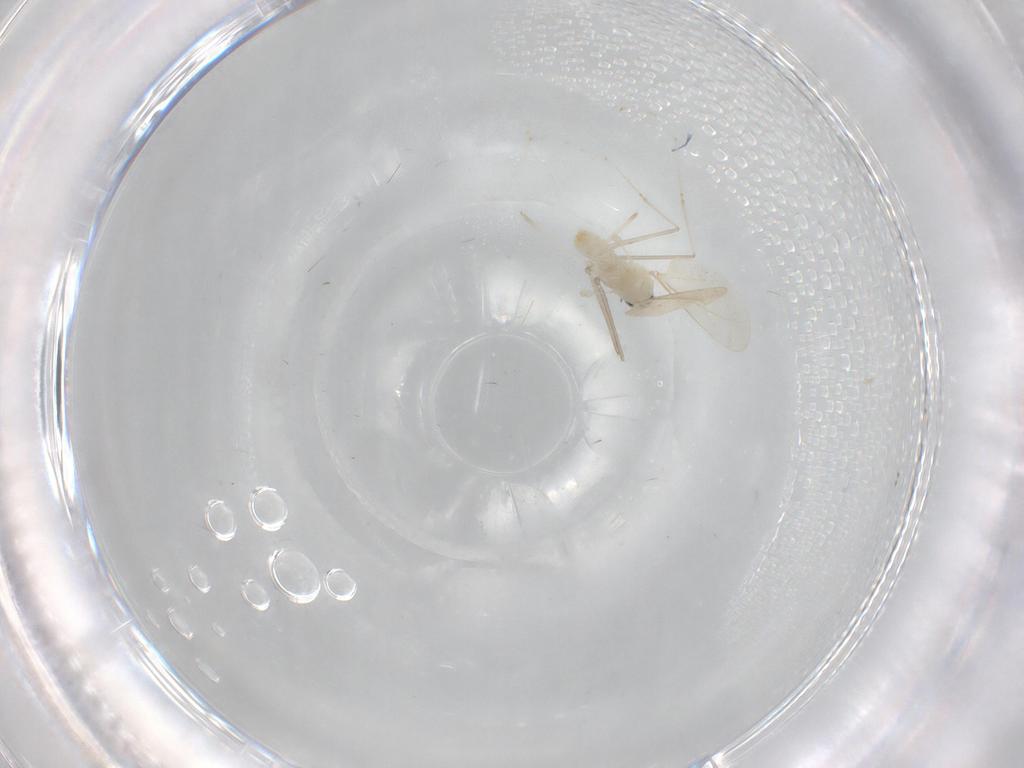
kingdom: Animalia
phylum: Arthropoda
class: Insecta
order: Diptera
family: Cecidomyiidae
